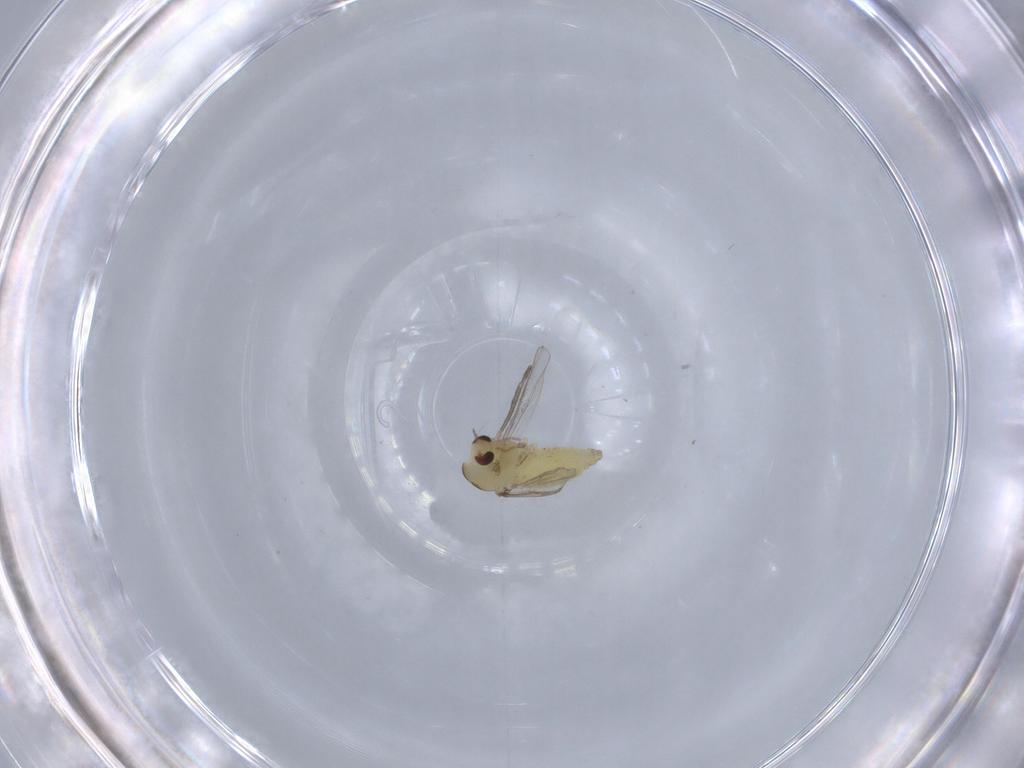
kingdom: Animalia
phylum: Arthropoda
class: Insecta
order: Diptera
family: Chironomidae
